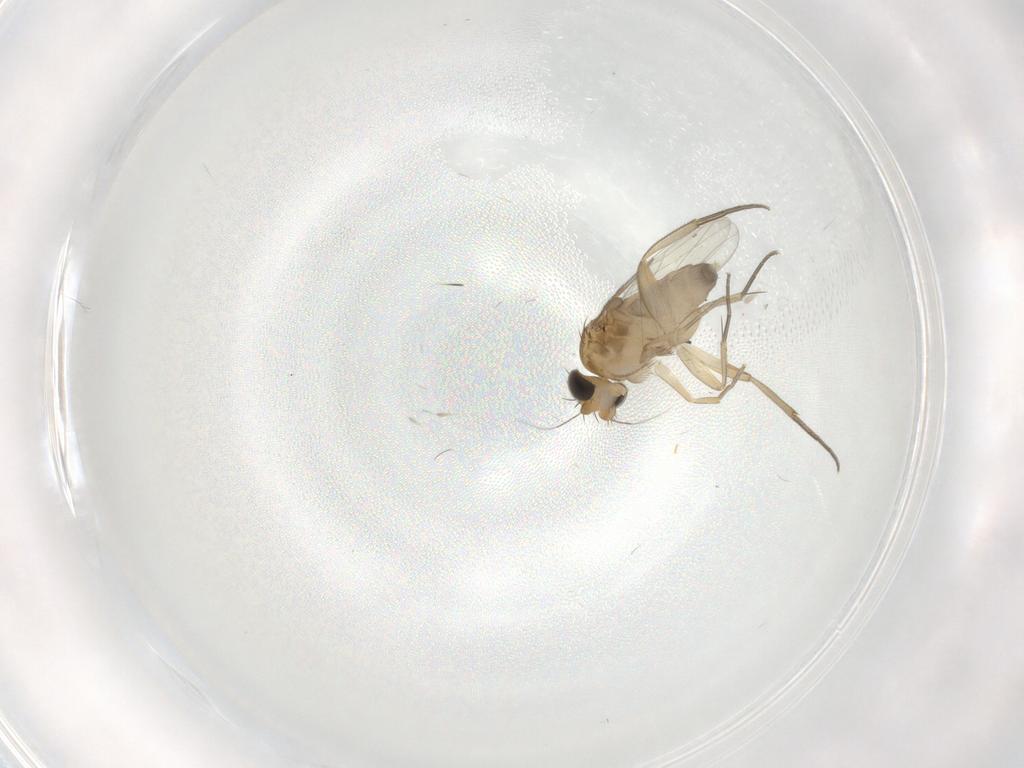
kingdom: Animalia
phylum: Arthropoda
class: Insecta
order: Diptera
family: Phoridae
